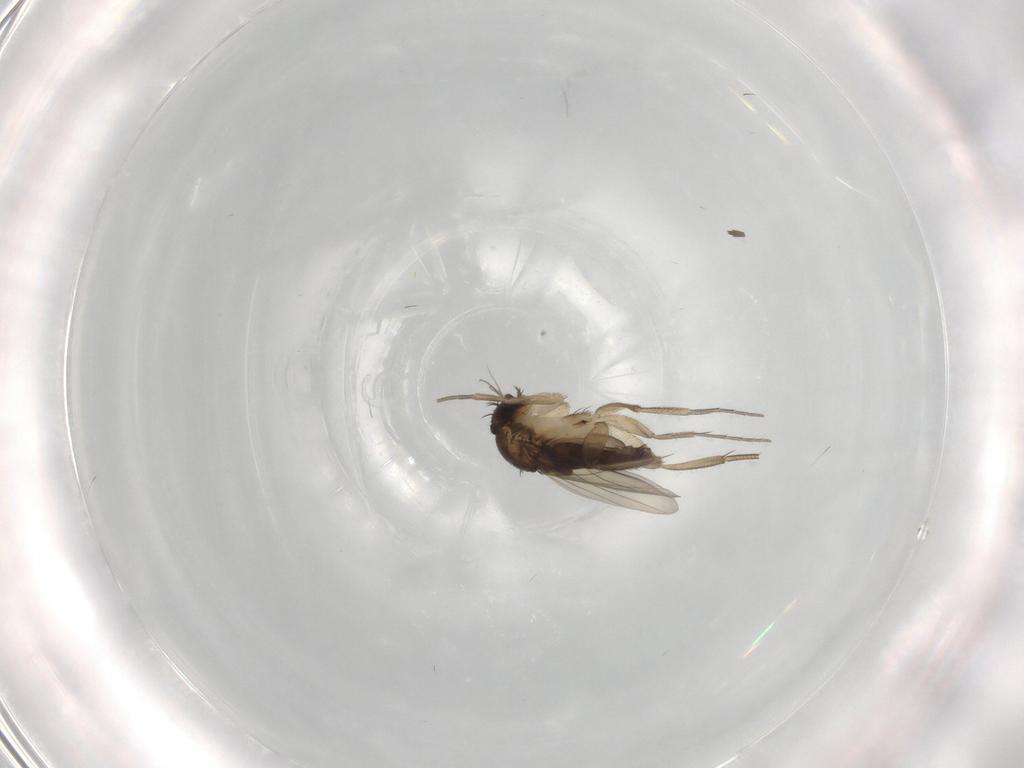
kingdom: Animalia
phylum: Arthropoda
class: Insecta
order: Diptera
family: Phoridae
